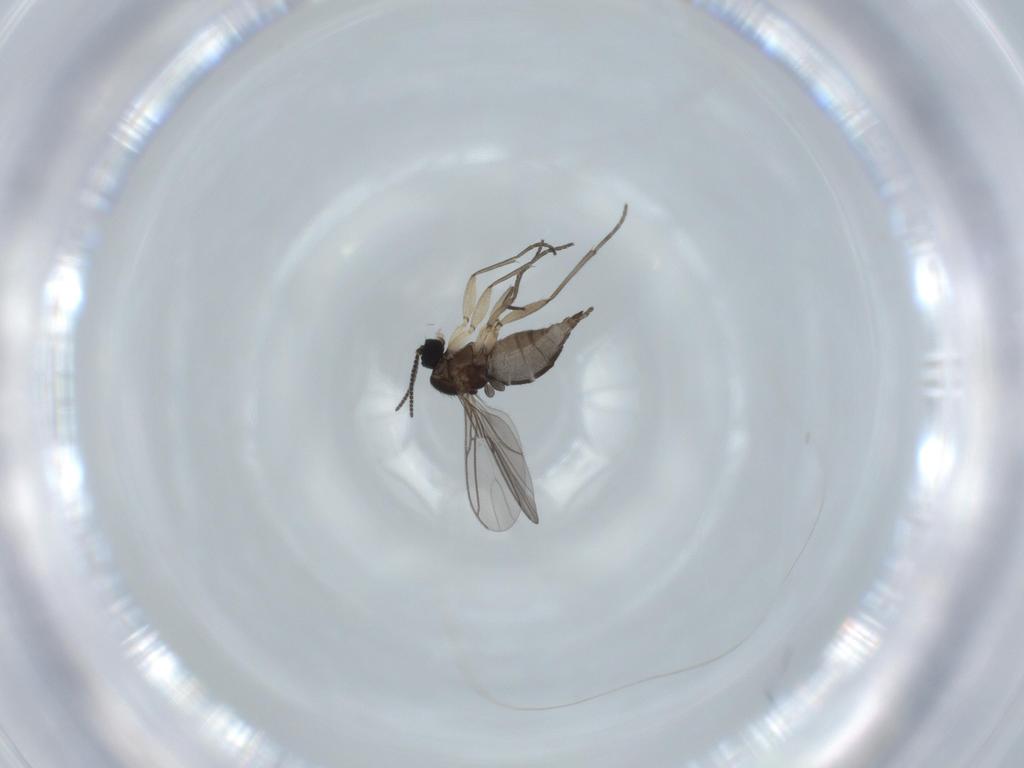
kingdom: Animalia
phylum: Arthropoda
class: Insecta
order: Diptera
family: Sciaridae
